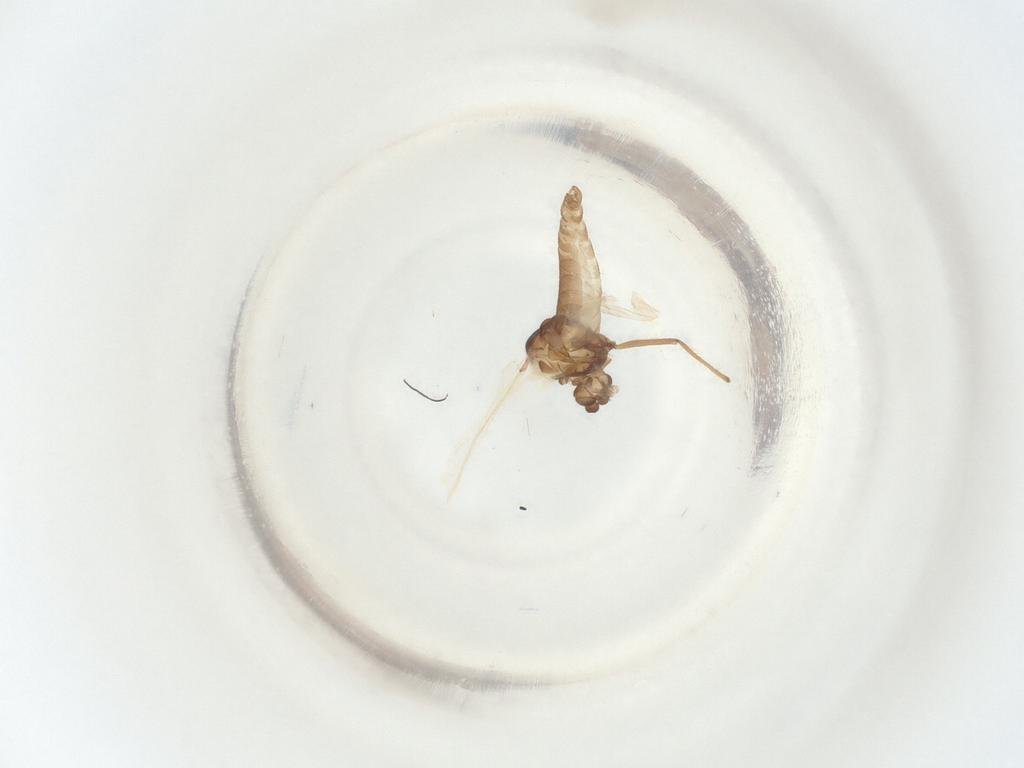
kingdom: Animalia
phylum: Arthropoda
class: Insecta
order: Diptera
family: Chironomidae
